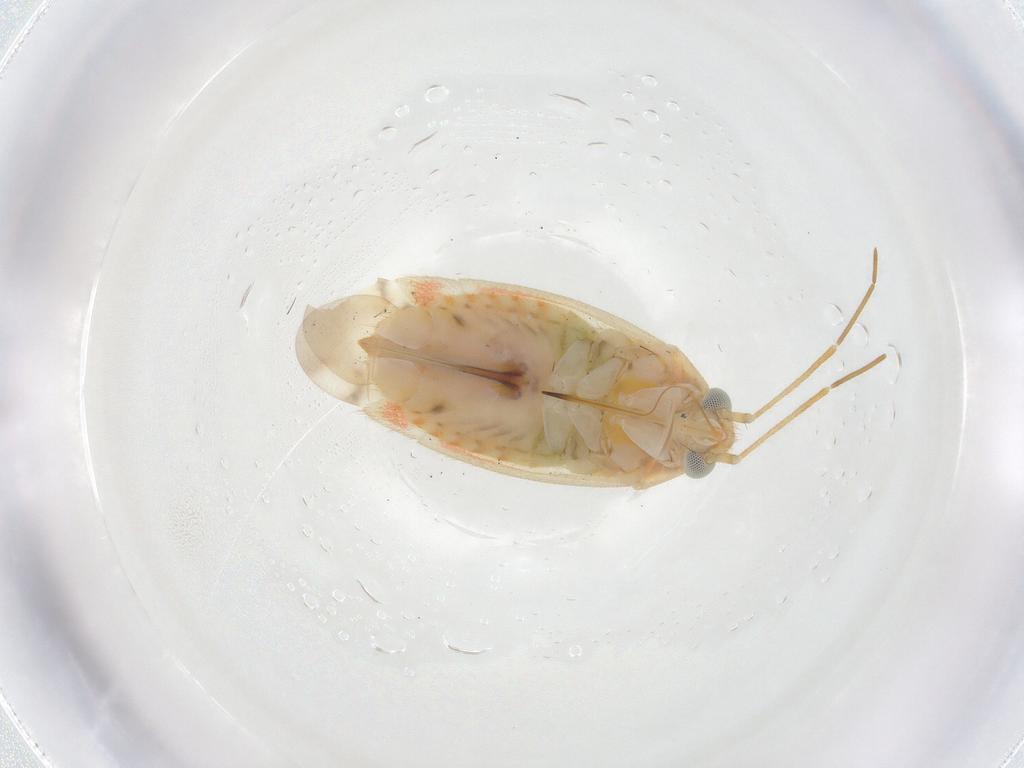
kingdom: Animalia
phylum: Arthropoda
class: Insecta
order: Hemiptera
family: Miridae
